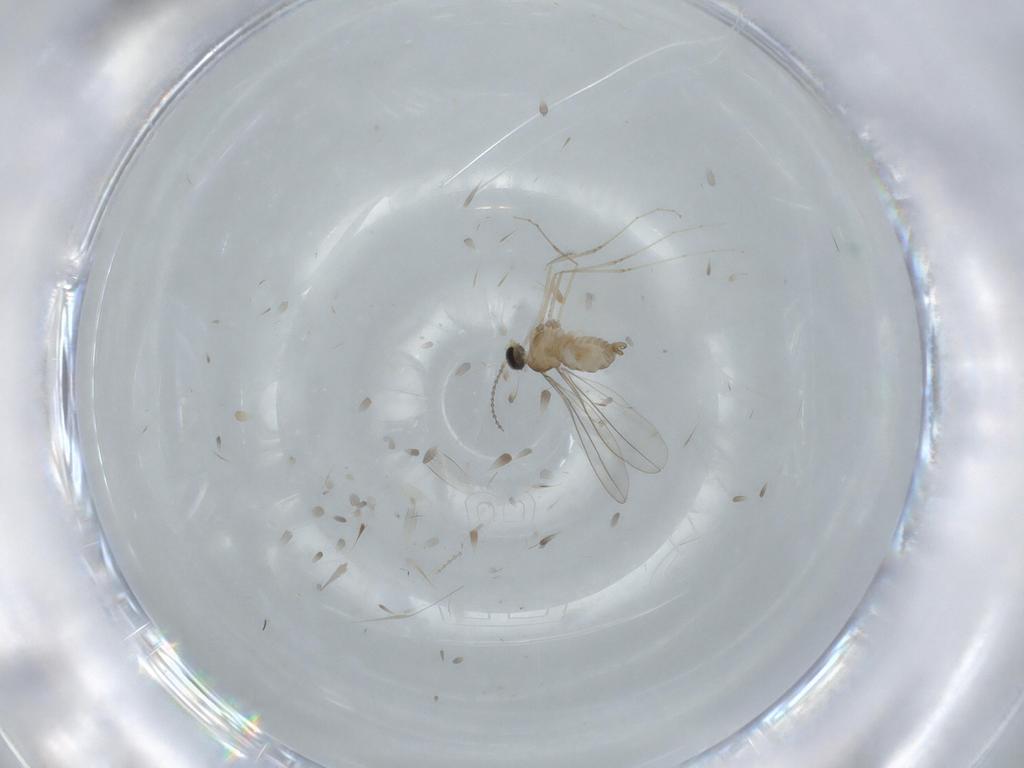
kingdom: Animalia
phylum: Arthropoda
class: Insecta
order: Diptera
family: Cecidomyiidae
